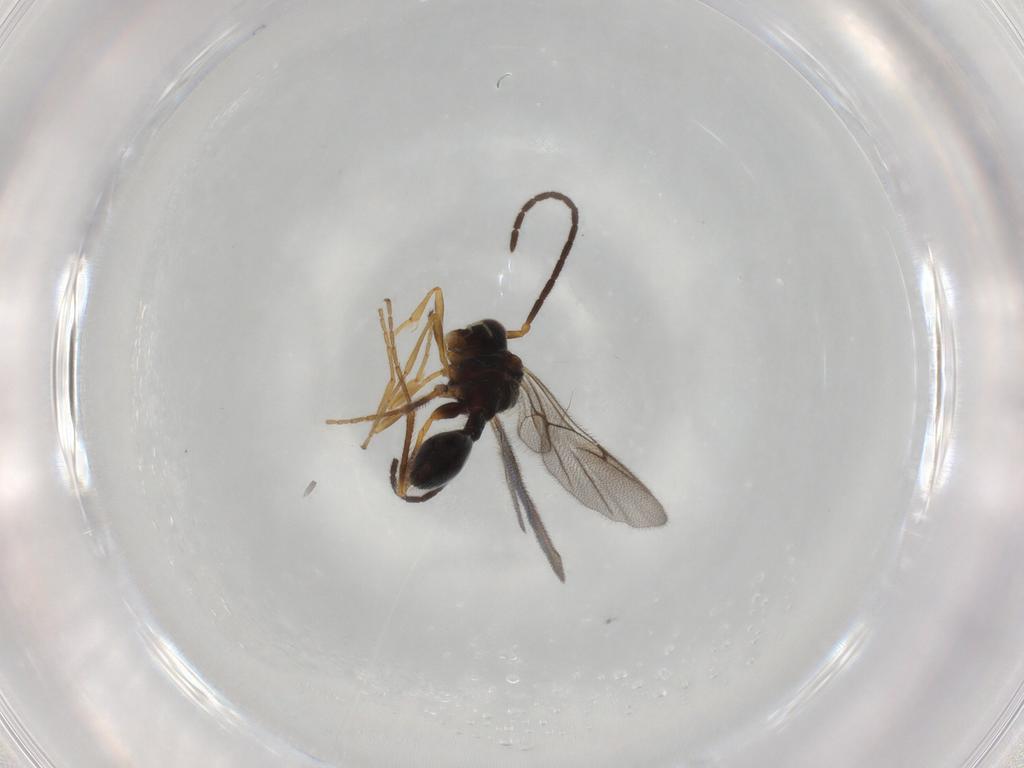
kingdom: Animalia
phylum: Arthropoda
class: Insecta
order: Hymenoptera
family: Diapriidae
